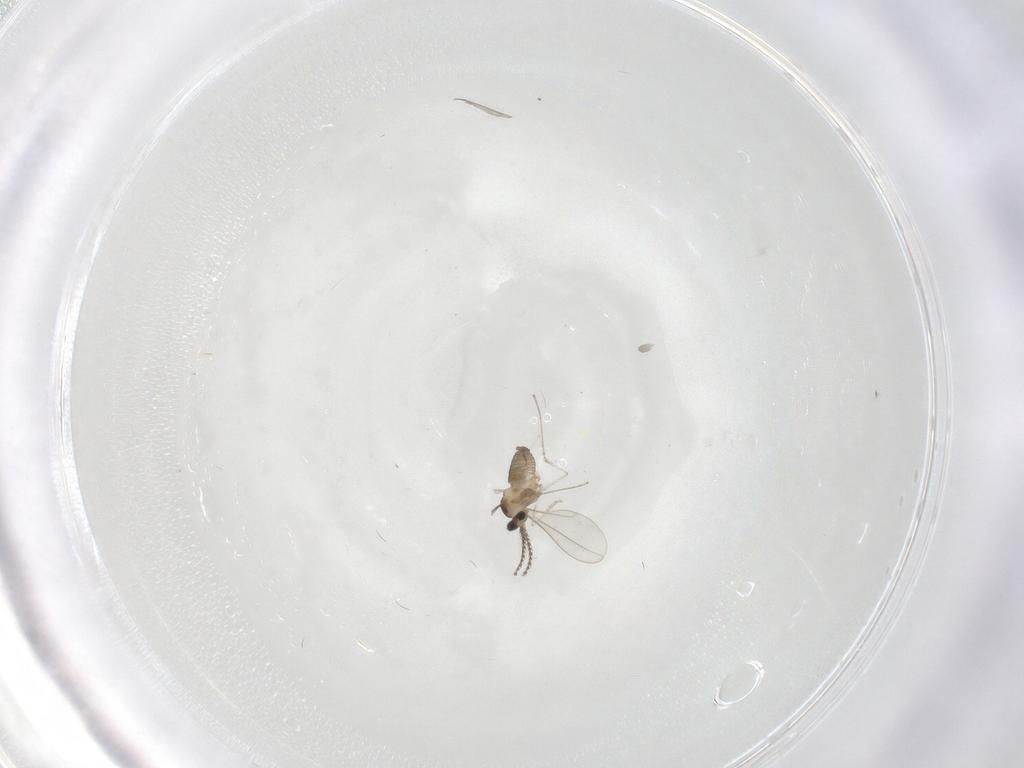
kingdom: Animalia
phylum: Arthropoda
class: Insecta
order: Diptera
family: Cecidomyiidae
